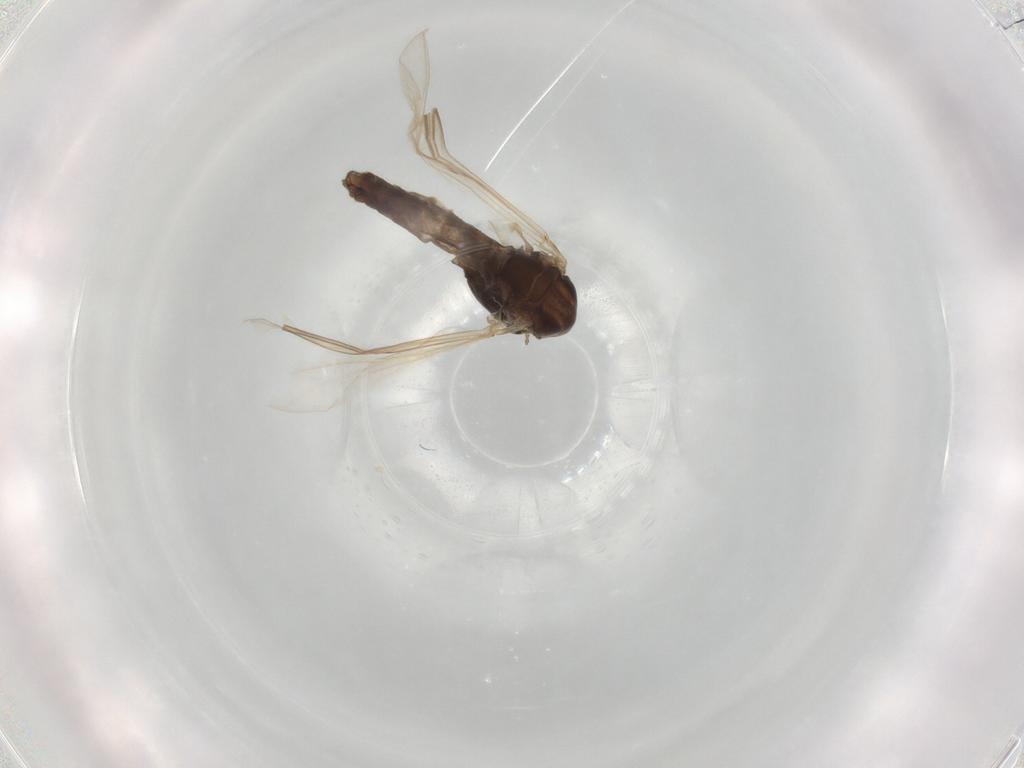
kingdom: Animalia
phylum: Arthropoda
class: Insecta
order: Diptera
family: Chironomidae
